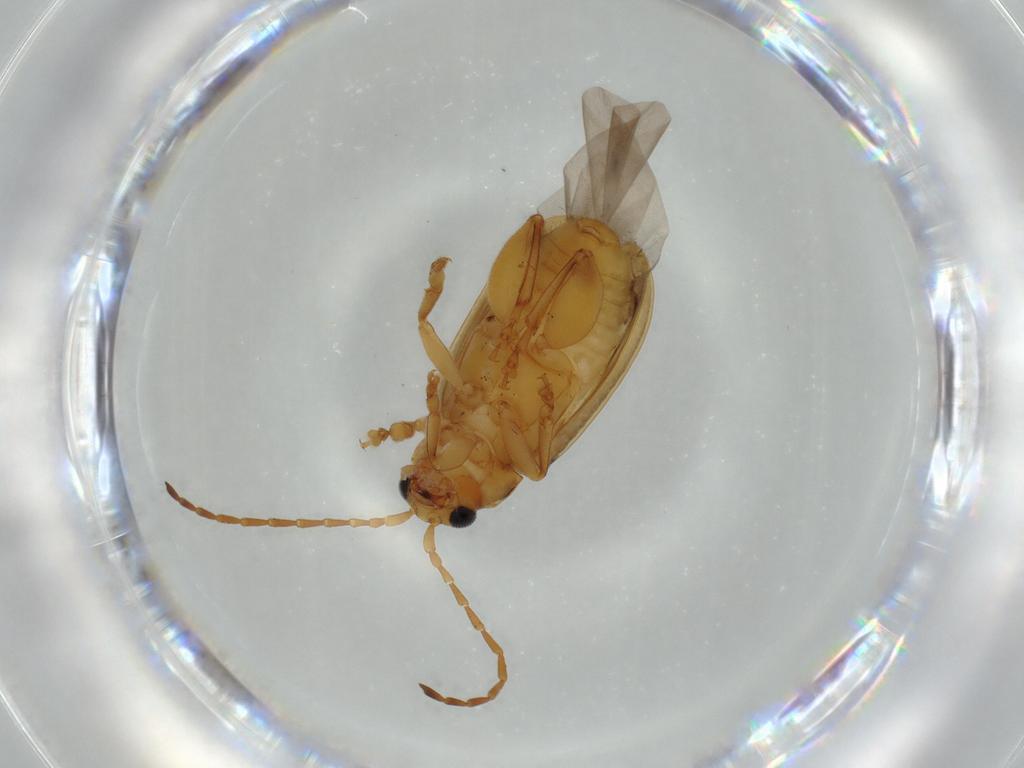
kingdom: Animalia
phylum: Arthropoda
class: Insecta
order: Coleoptera
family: Chrysomelidae
